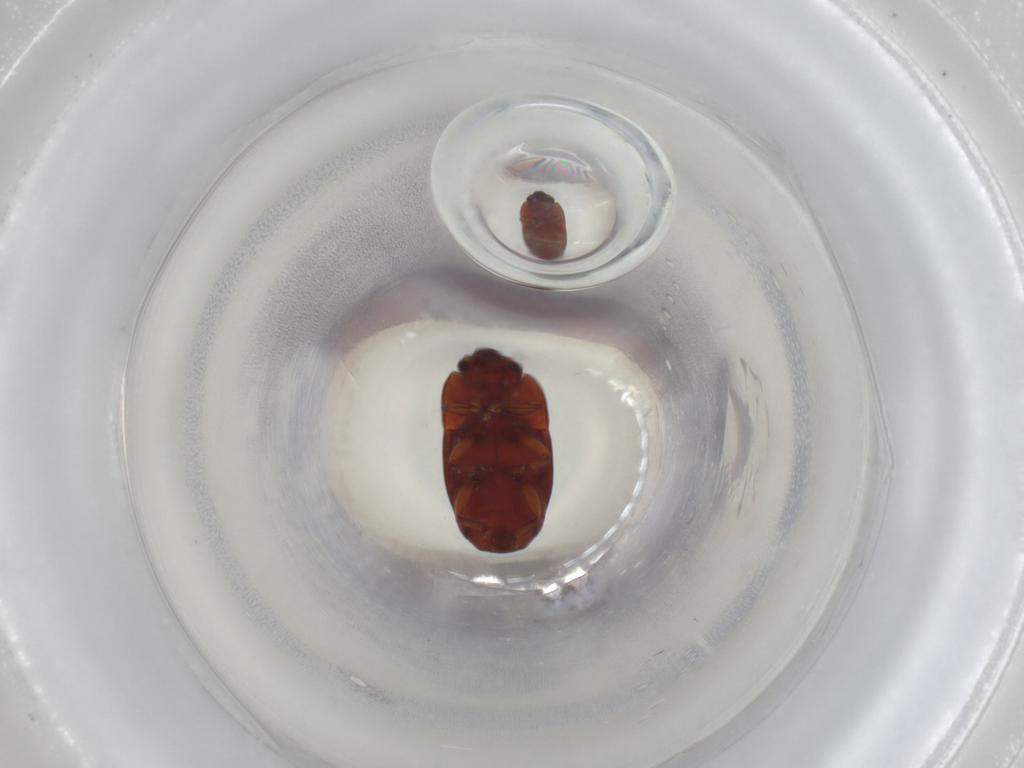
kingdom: Animalia
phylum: Arthropoda
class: Insecta
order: Coleoptera
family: Nitidulidae
